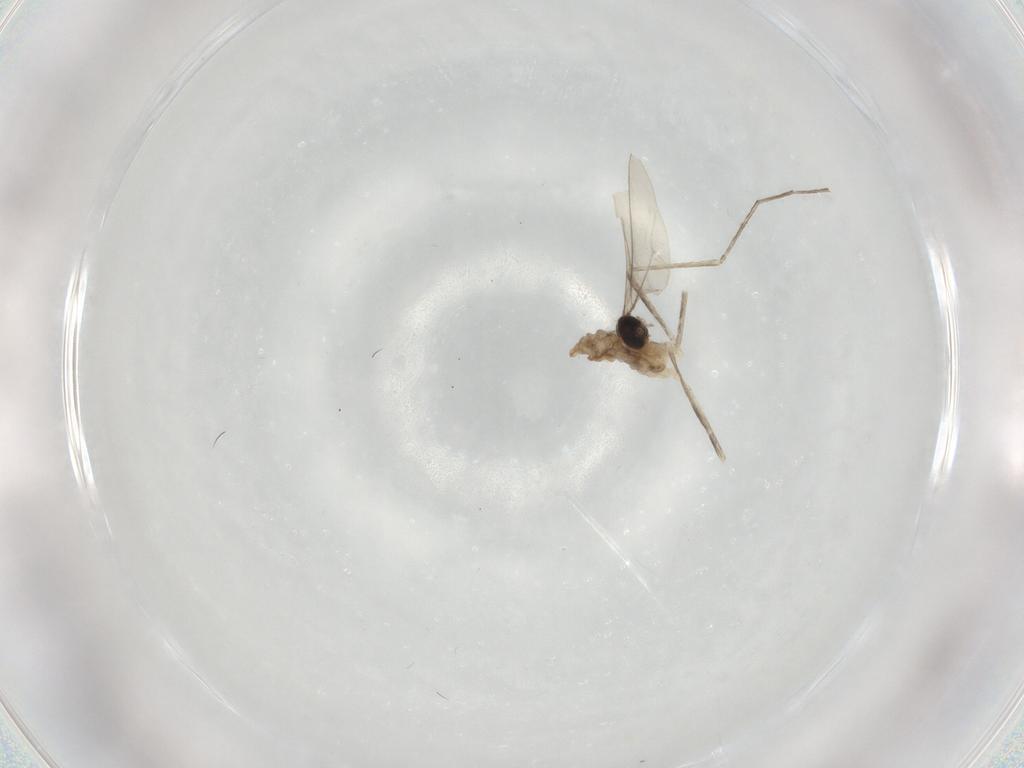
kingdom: Animalia
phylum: Arthropoda
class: Insecta
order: Diptera
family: Cecidomyiidae
